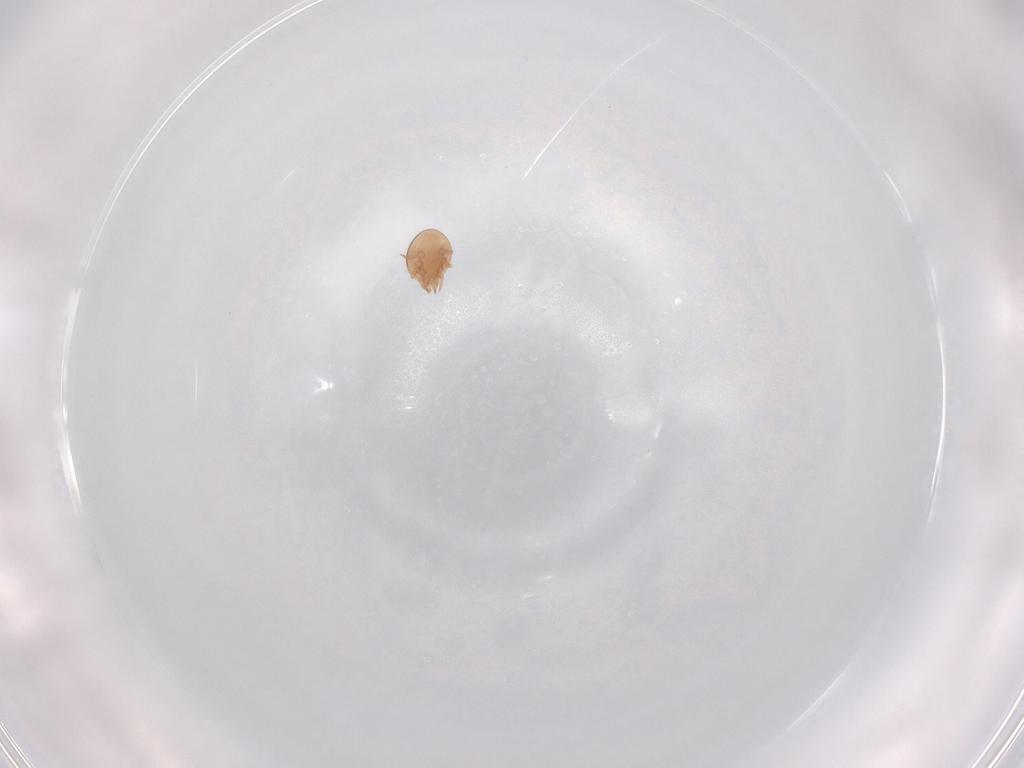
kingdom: Animalia
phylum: Arthropoda
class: Arachnida
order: Mesostigmata
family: Trematuridae
